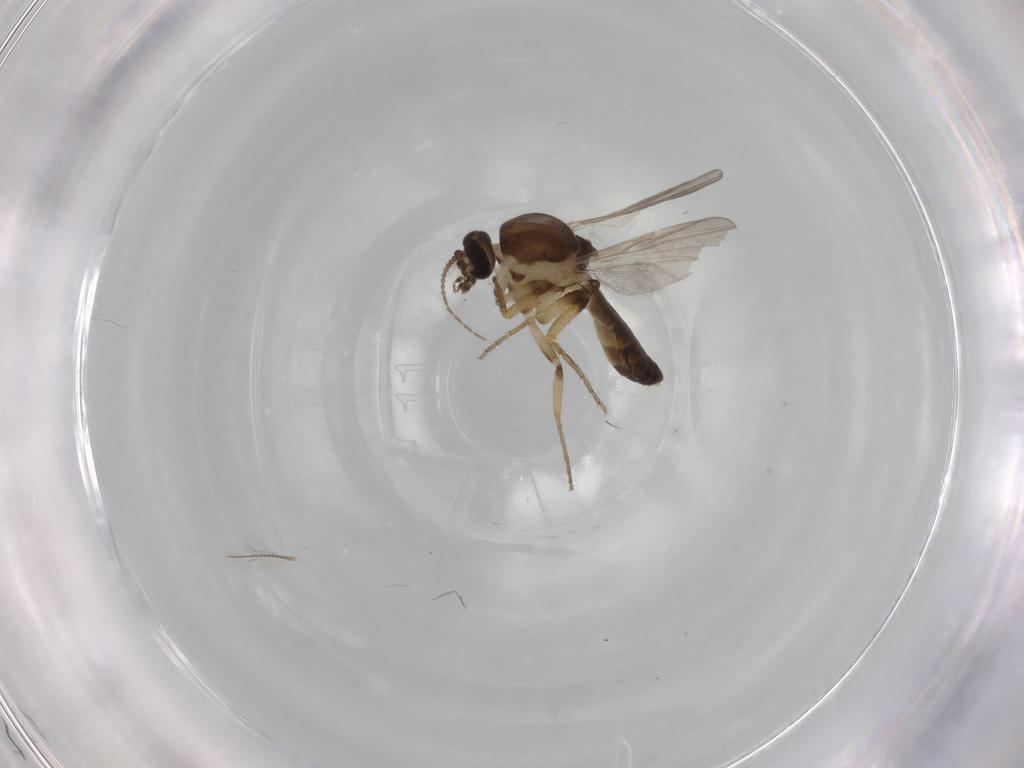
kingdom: Animalia
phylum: Arthropoda
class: Insecta
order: Diptera
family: Ceratopogonidae
